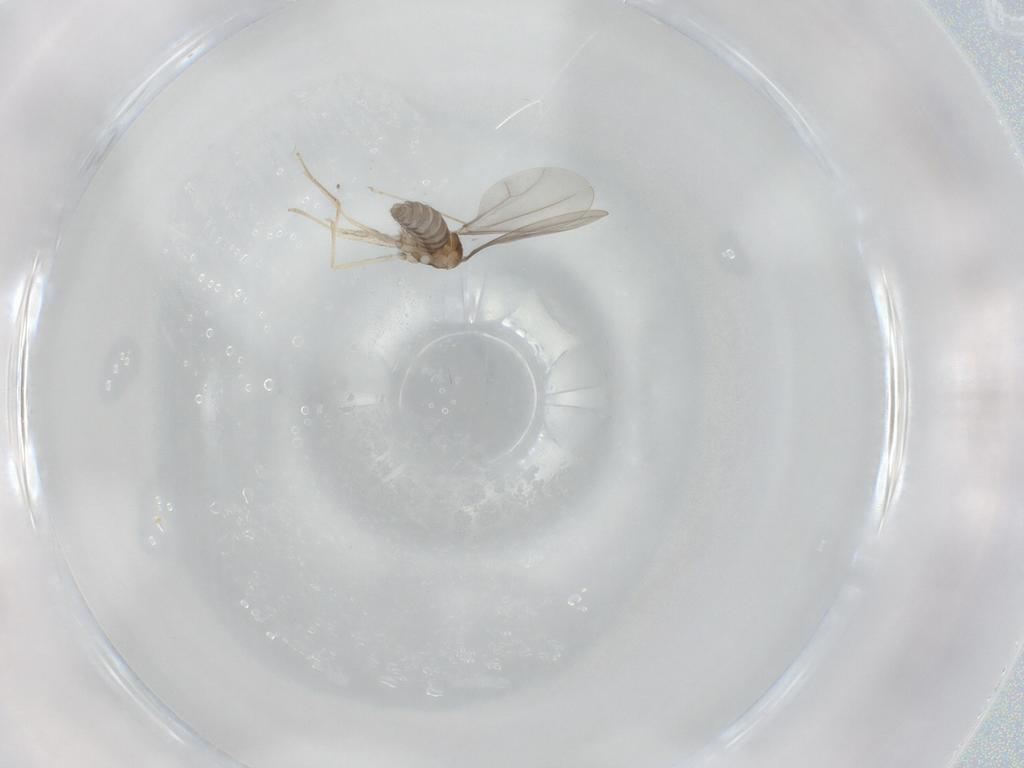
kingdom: Animalia
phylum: Arthropoda
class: Insecta
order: Diptera
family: Cecidomyiidae
